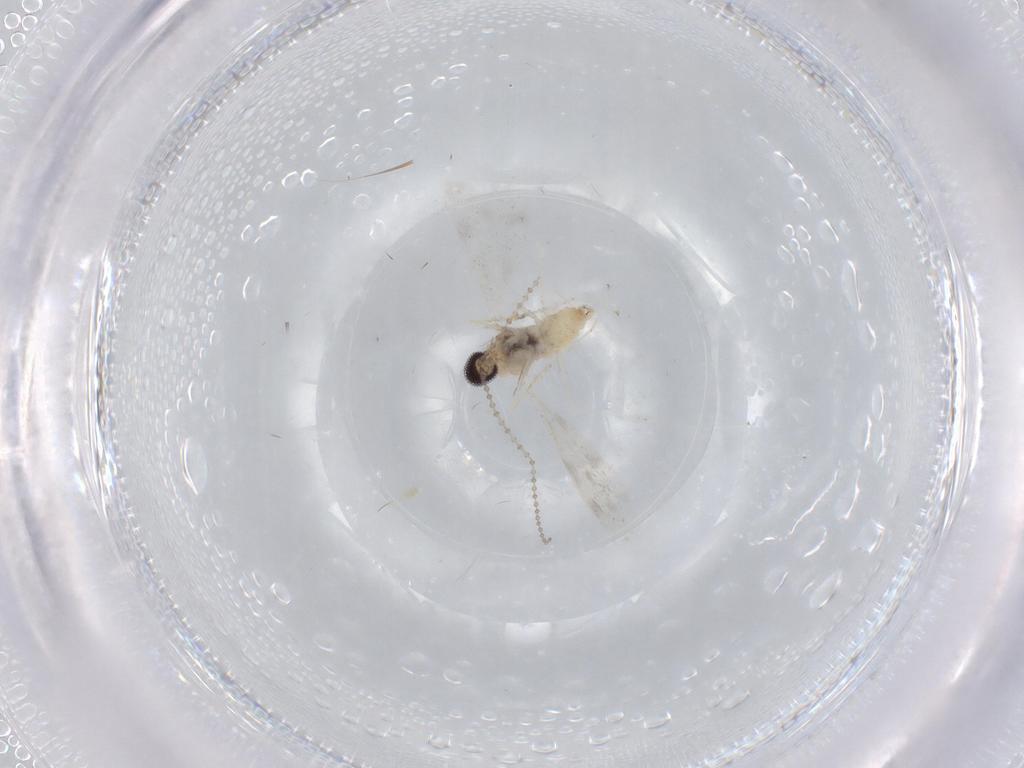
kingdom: Animalia
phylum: Arthropoda
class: Insecta
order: Diptera
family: Cecidomyiidae
